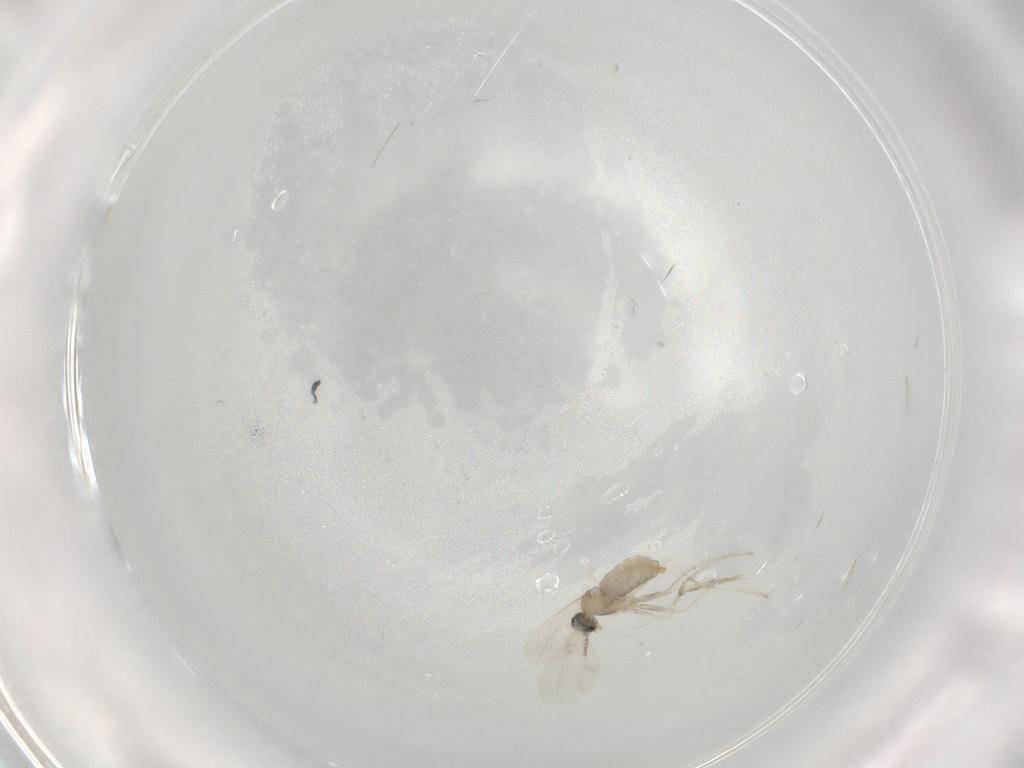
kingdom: Animalia
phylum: Arthropoda
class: Insecta
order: Diptera
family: Cecidomyiidae
